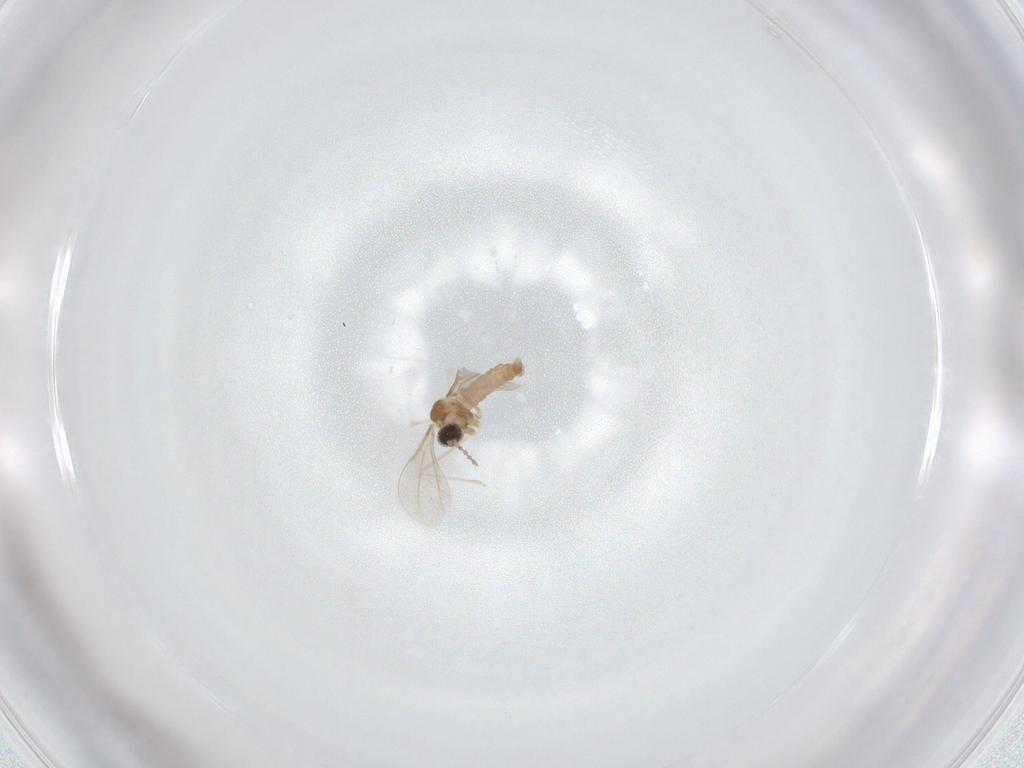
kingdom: Animalia
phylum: Arthropoda
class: Insecta
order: Diptera
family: Cecidomyiidae
